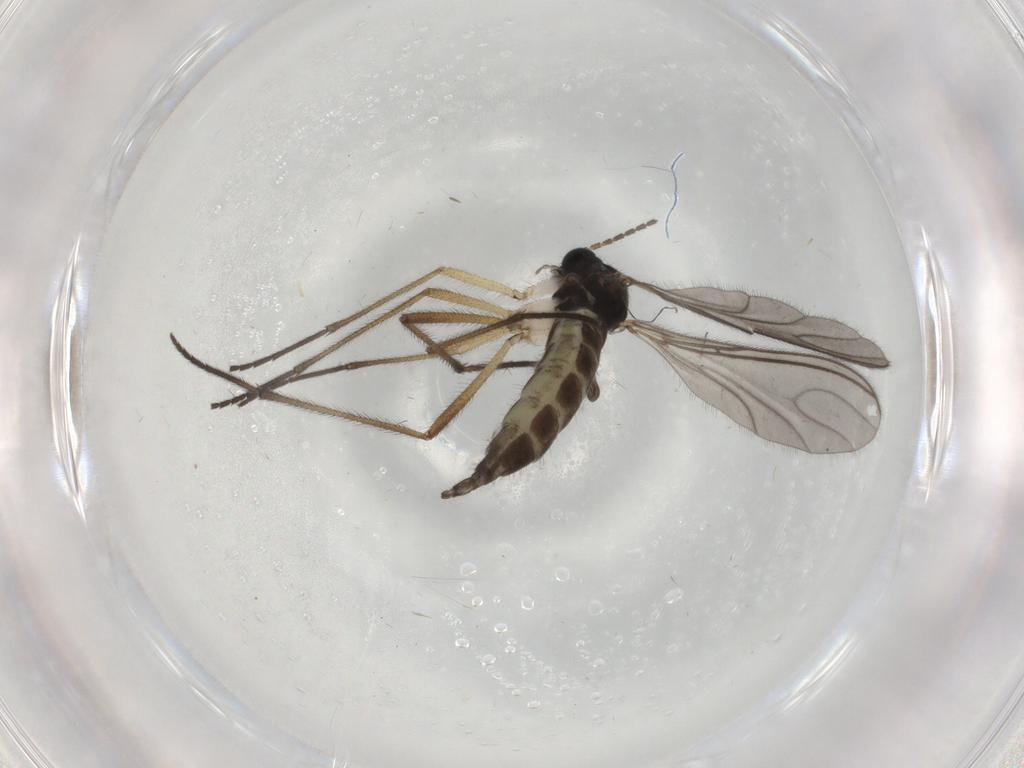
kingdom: Animalia
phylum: Arthropoda
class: Insecta
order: Diptera
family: Sciaridae
